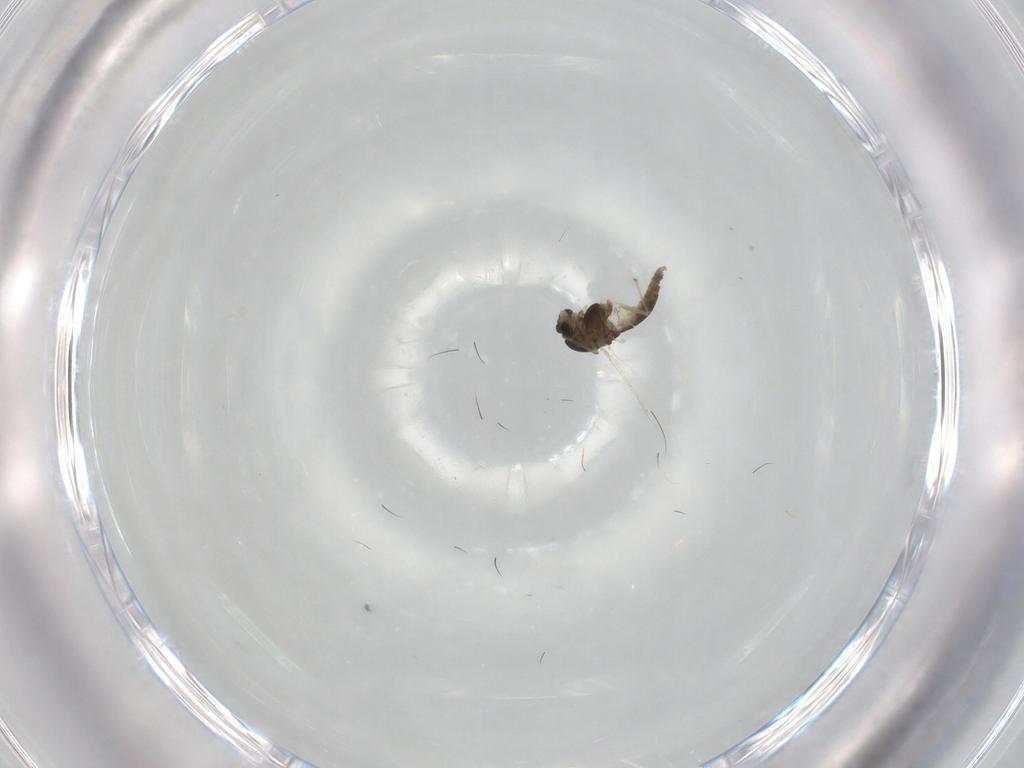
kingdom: Animalia
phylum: Arthropoda
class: Insecta
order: Diptera
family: Chironomidae
